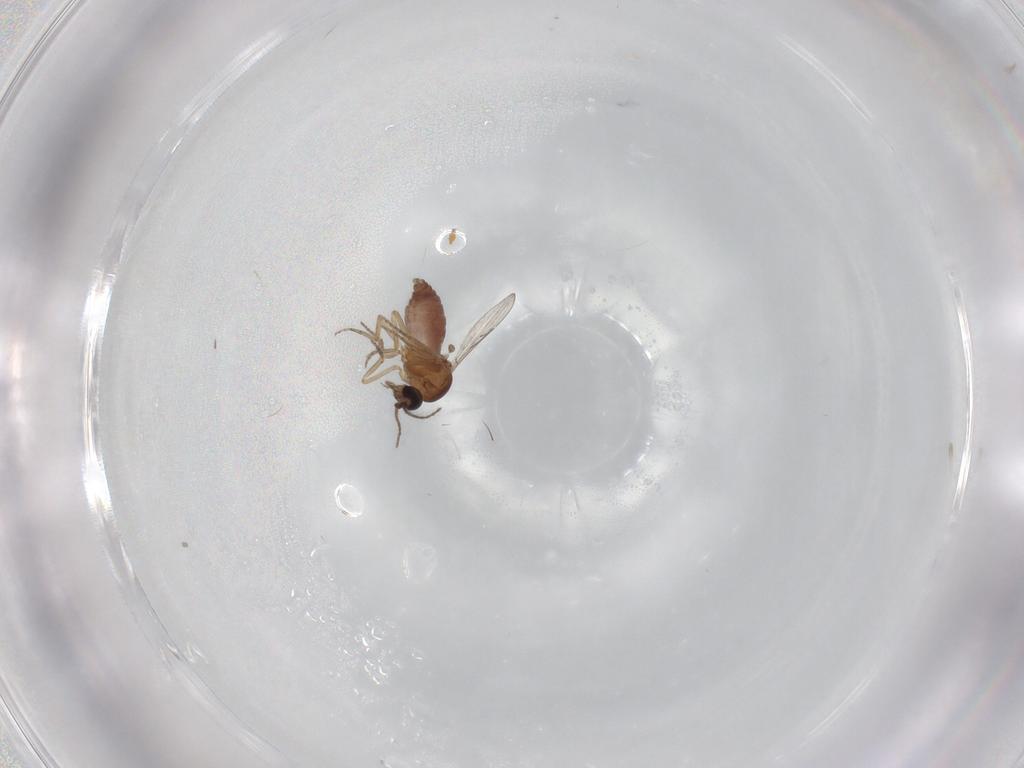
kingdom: Animalia
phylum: Arthropoda
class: Insecta
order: Diptera
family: Ceratopogonidae
